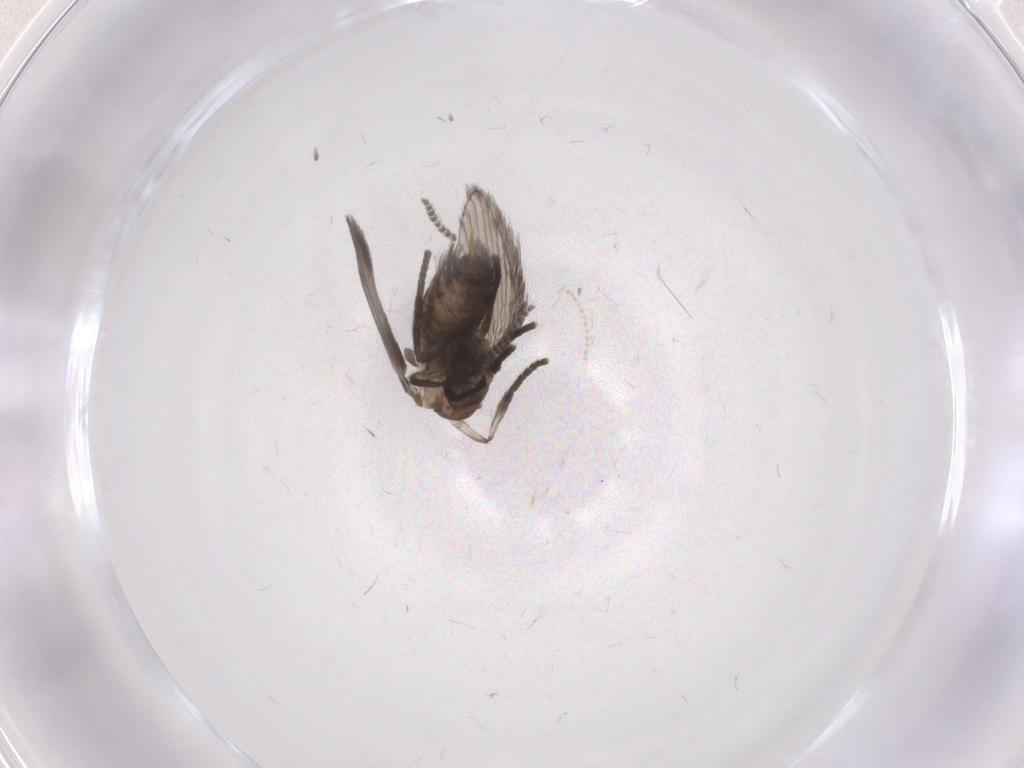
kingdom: Animalia
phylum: Arthropoda
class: Insecta
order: Diptera
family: Psychodidae
